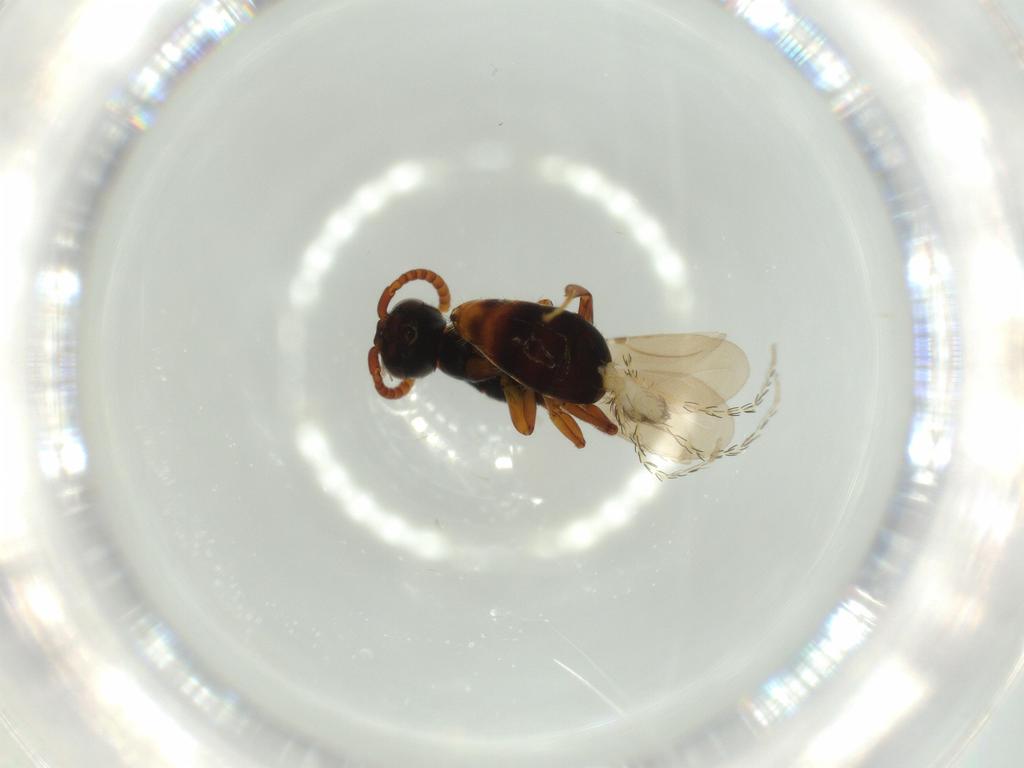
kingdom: Animalia
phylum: Arthropoda
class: Arachnida
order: Trombidiformes
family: Erythraeidae
